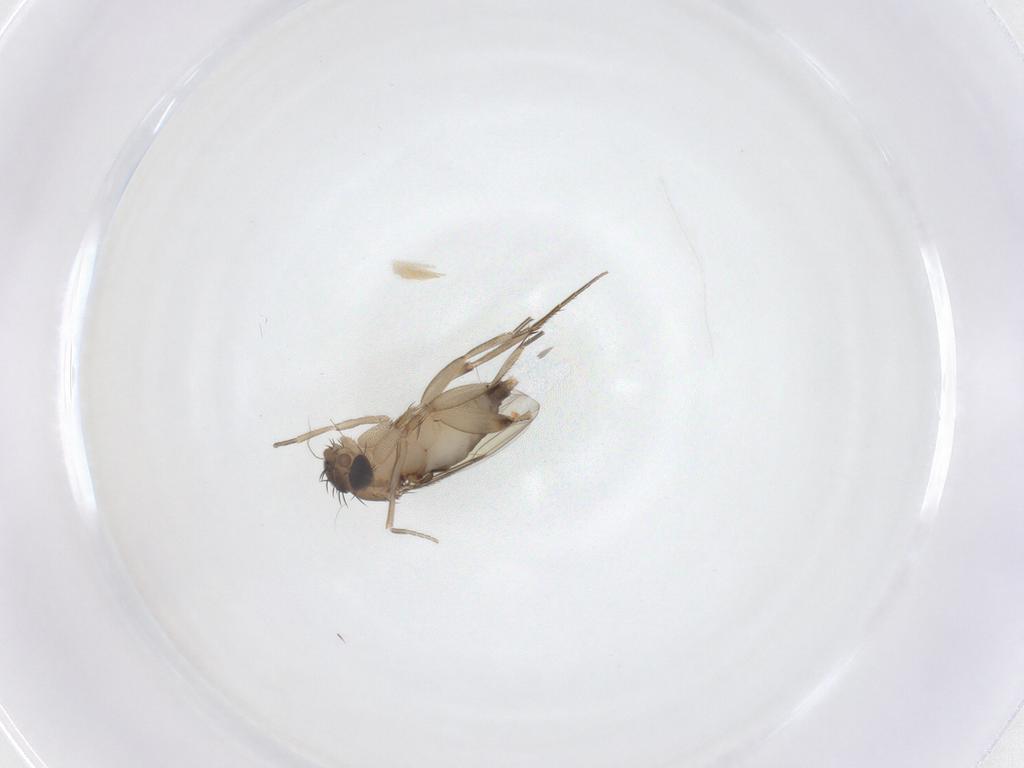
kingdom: Animalia
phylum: Arthropoda
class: Insecta
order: Diptera
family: Phoridae
